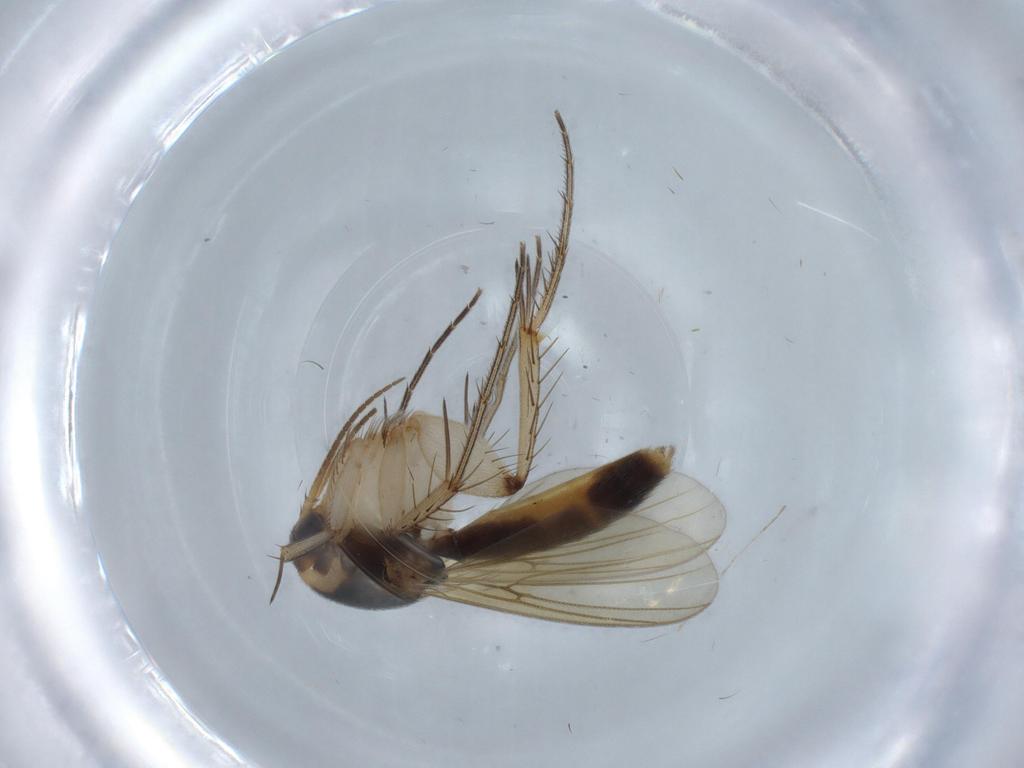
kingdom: Animalia
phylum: Arthropoda
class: Insecta
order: Diptera
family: Mycetophilidae
